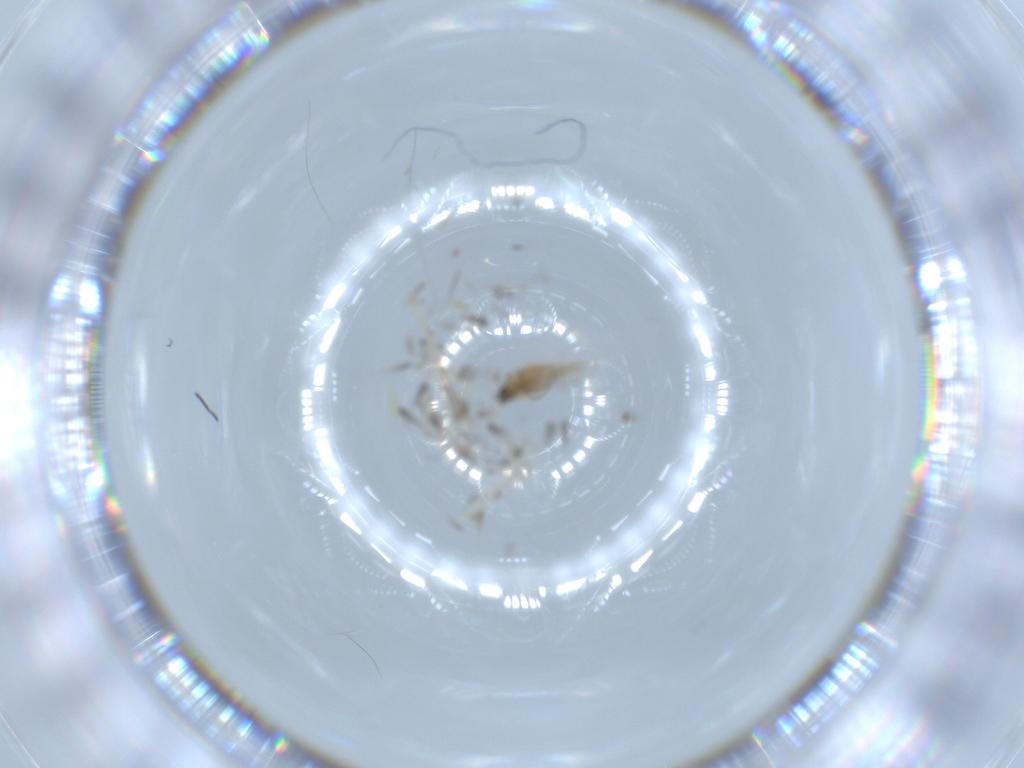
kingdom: Animalia
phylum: Arthropoda
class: Insecta
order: Diptera
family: Cecidomyiidae
